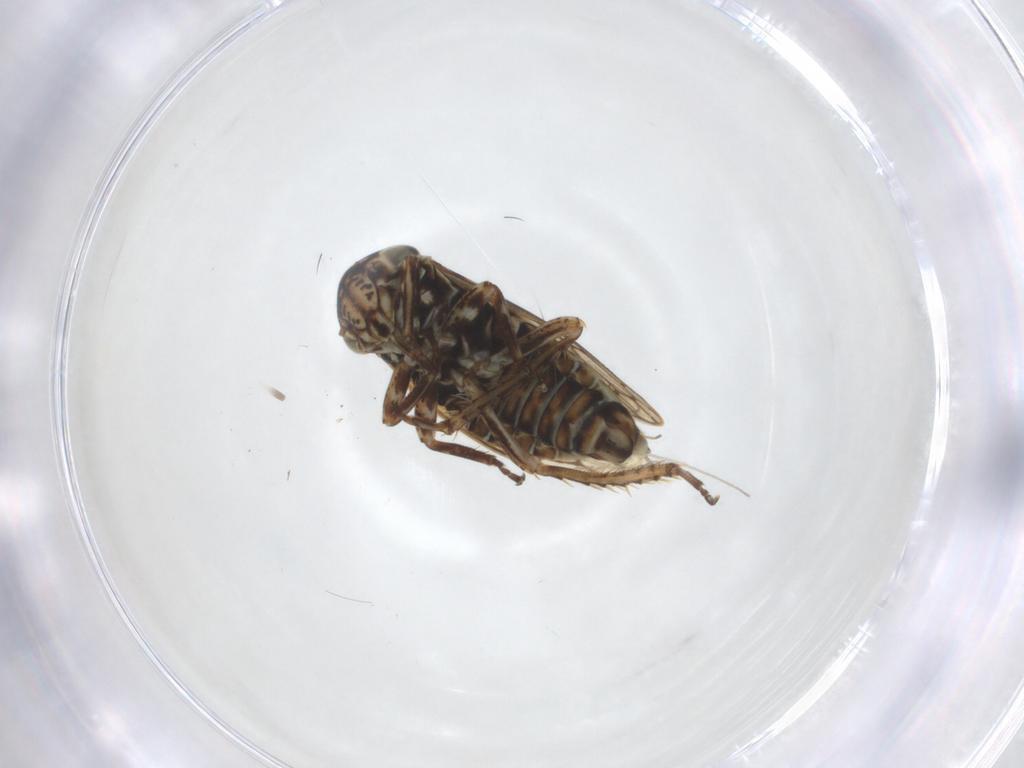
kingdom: Animalia
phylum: Arthropoda
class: Insecta
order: Hemiptera
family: Cicadellidae
